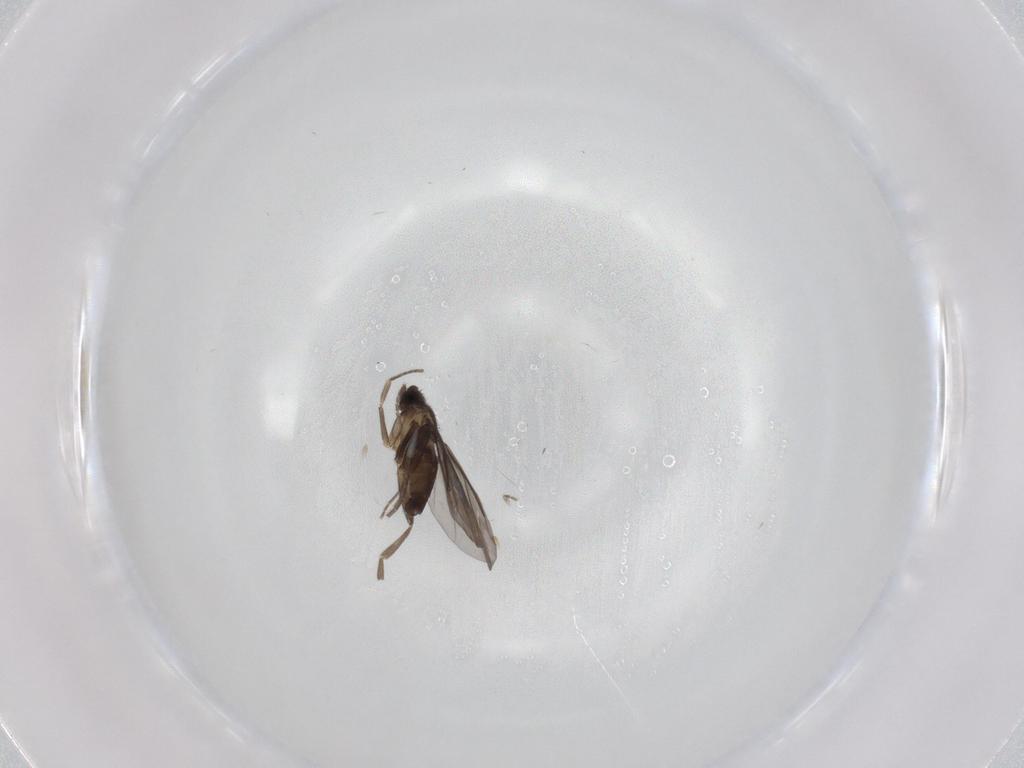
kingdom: Animalia
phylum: Arthropoda
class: Insecta
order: Diptera
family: Phoridae
